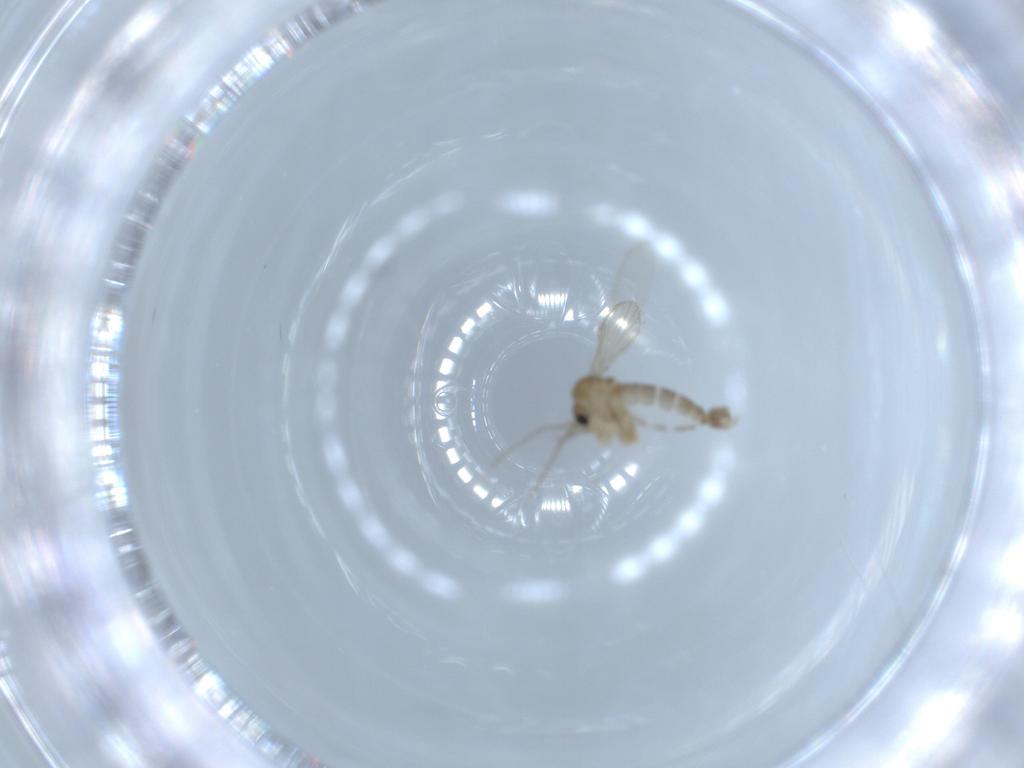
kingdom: Animalia
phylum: Arthropoda
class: Insecta
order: Diptera
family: Psychodidae
